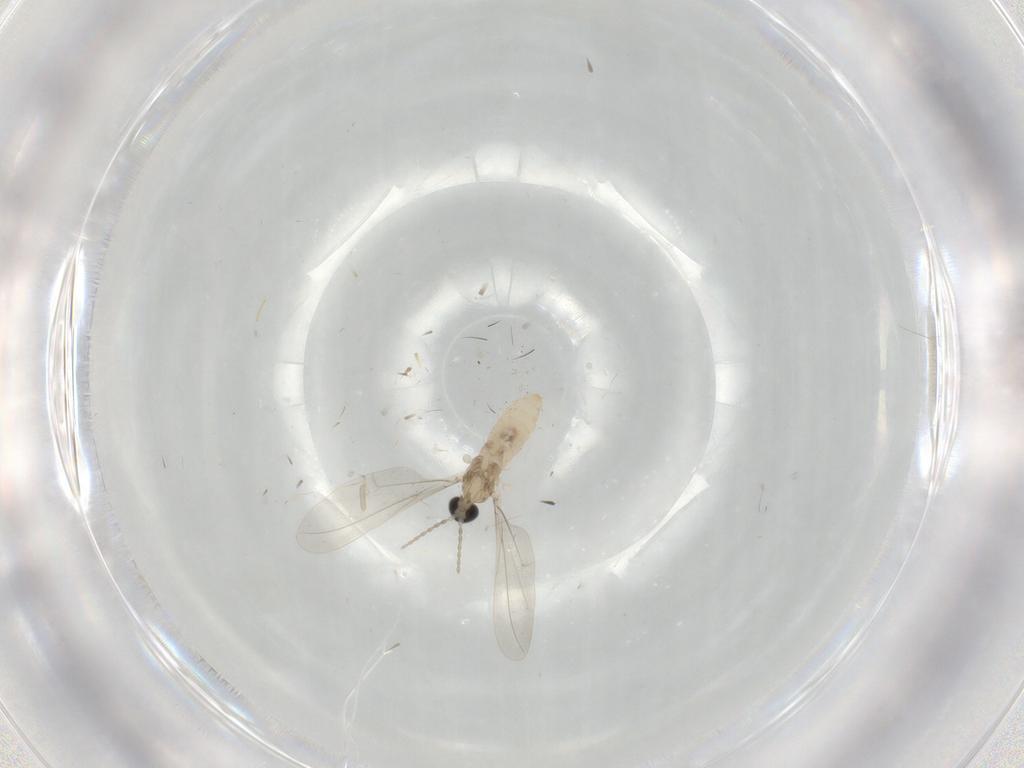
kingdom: Animalia
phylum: Arthropoda
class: Insecta
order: Diptera
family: Cecidomyiidae
